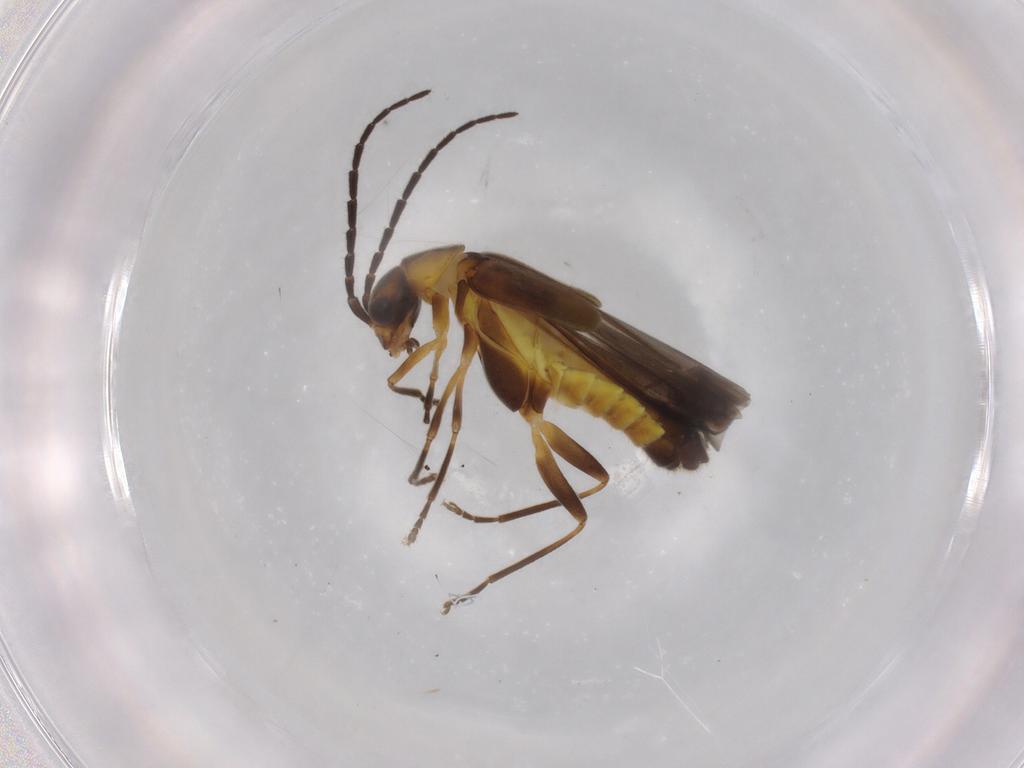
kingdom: Animalia
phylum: Arthropoda
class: Insecta
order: Coleoptera
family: Cantharidae
